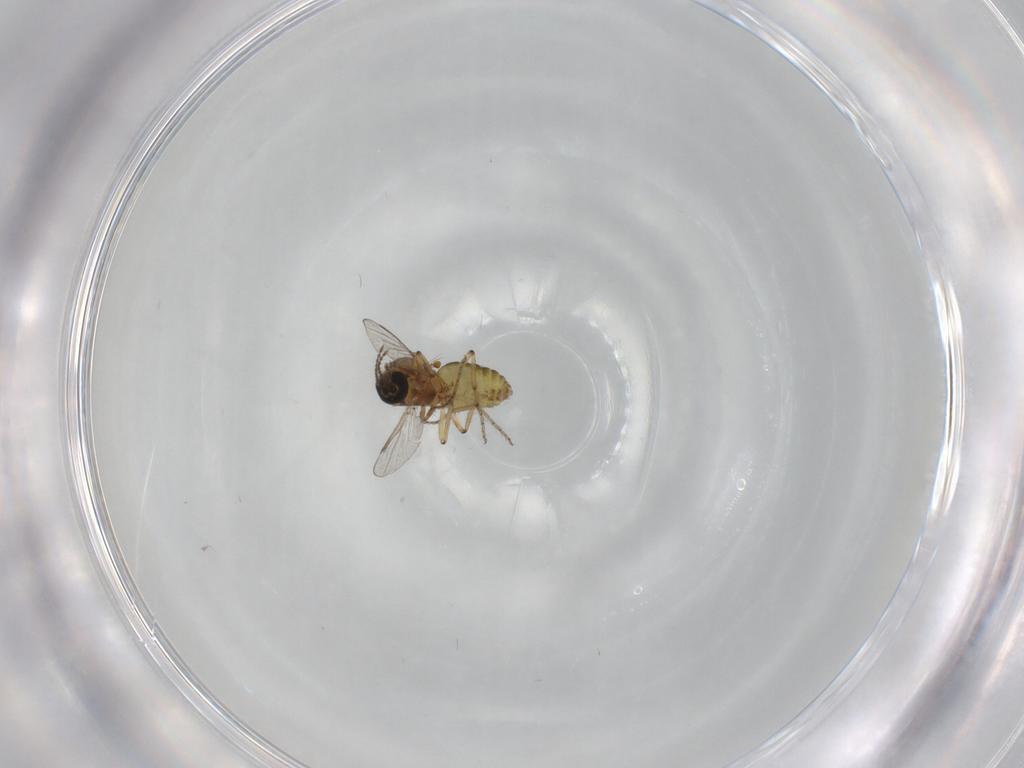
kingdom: Animalia
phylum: Arthropoda
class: Insecta
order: Diptera
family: Ceratopogonidae
